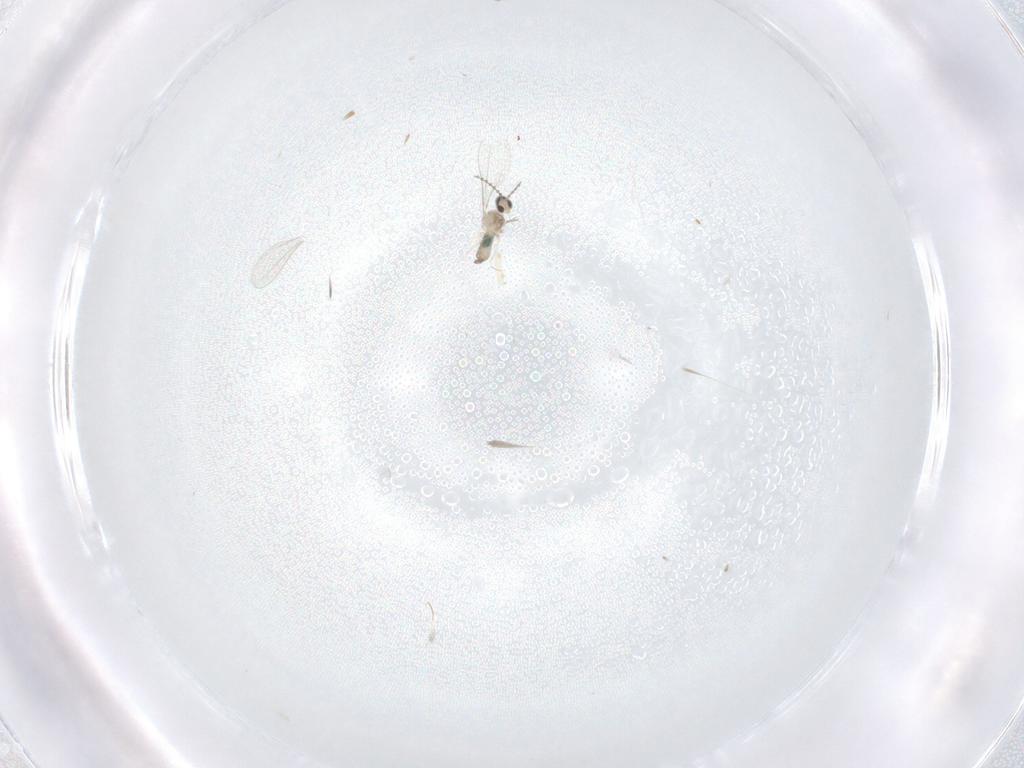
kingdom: Animalia
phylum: Arthropoda
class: Insecta
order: Diptera
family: Cecidomyiidae
